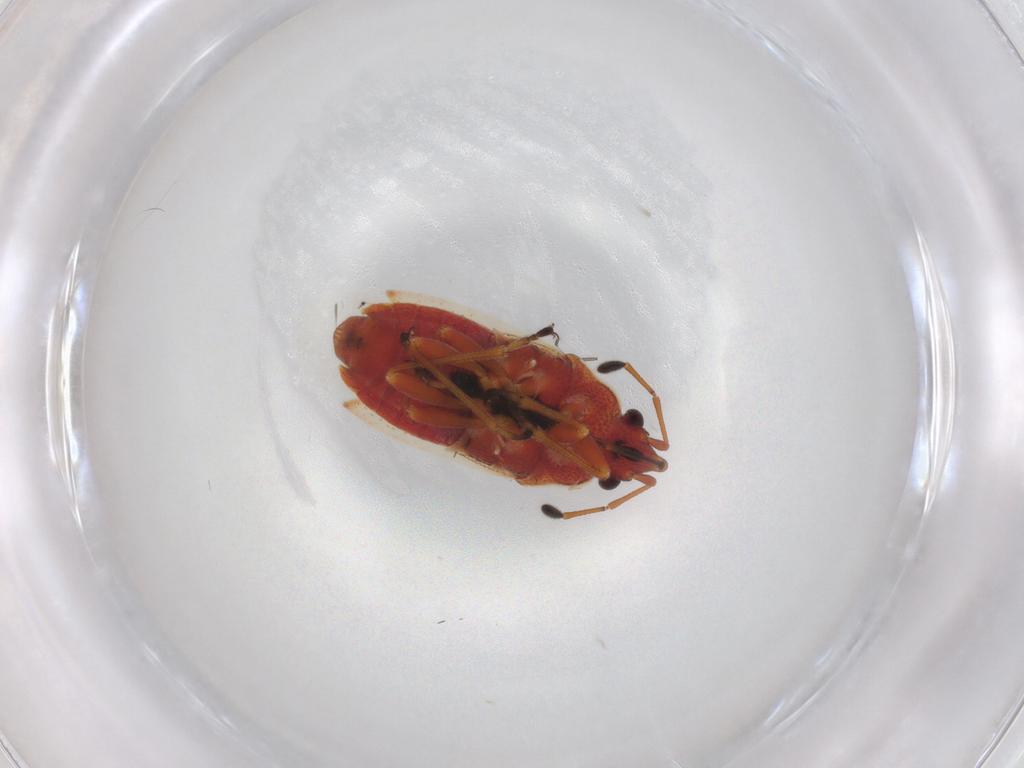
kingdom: Animalia
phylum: Arthropoda
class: Insecta
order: Hemiptera
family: Lygaeidae
